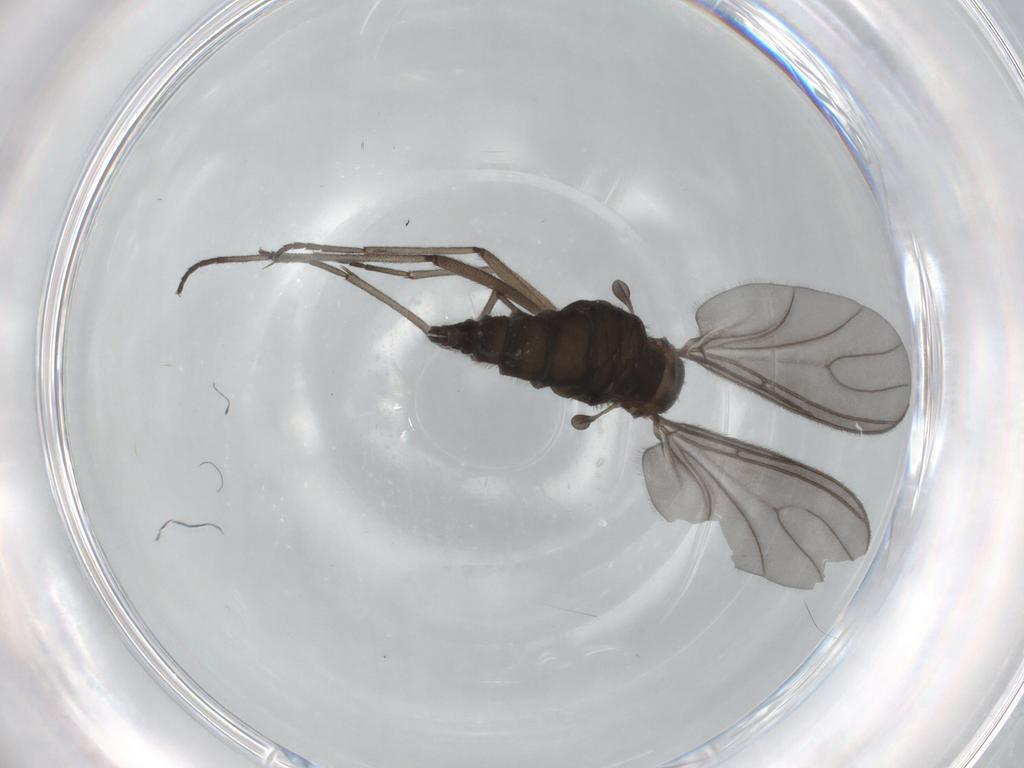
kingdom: Animalia
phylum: Arthropoda
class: Insecta
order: Diptera
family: Sciaridae
